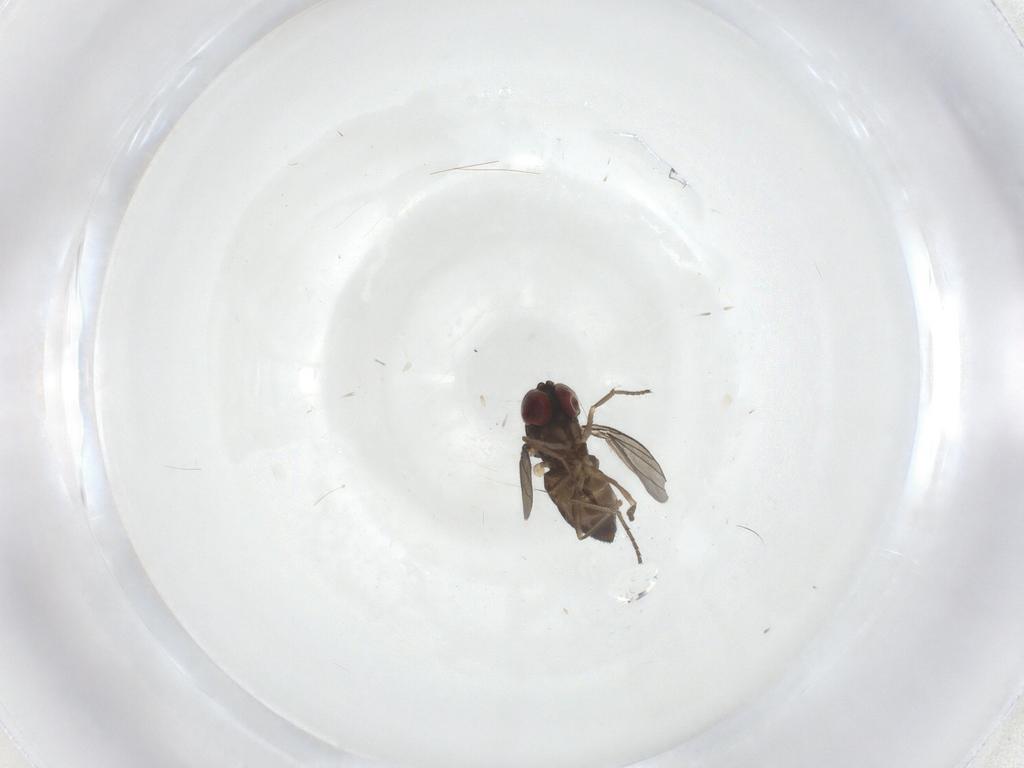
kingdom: Animalia
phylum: Arthropoda
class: Insecta
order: Diptera
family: Dolichopodidae
